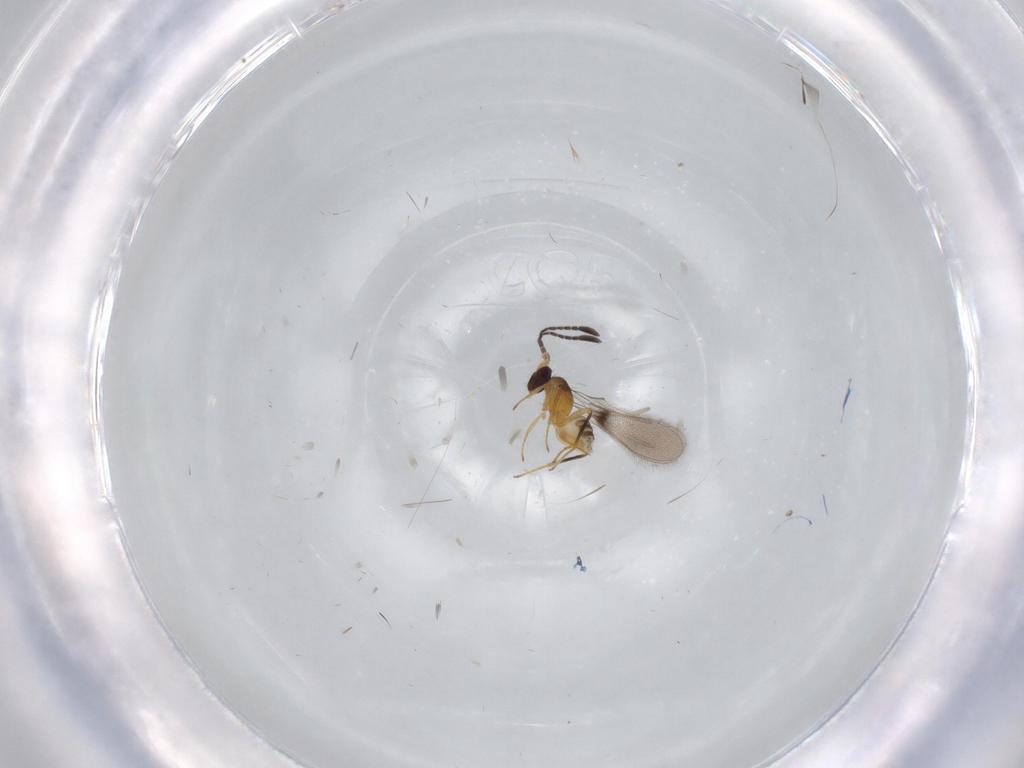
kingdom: Animalia
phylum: Arthropoda
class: Insecta
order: Hymenoptera
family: Mymaridae
